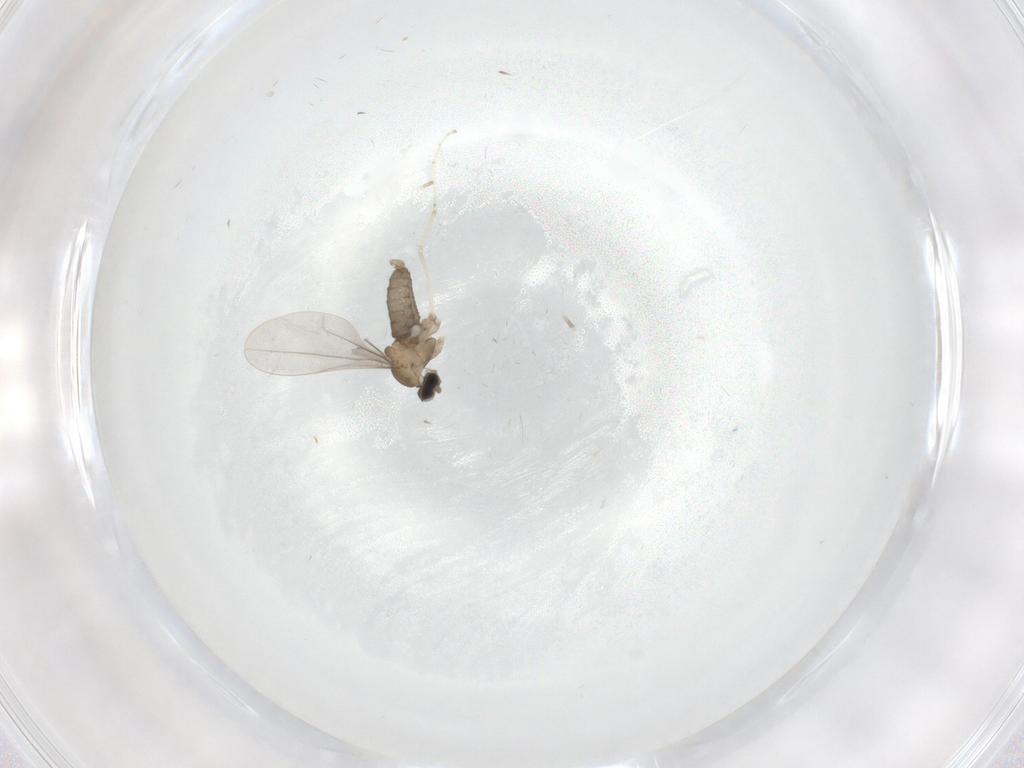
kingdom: Animalia
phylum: Arthropoda
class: Insecta
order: Diptera
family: Cecidomyiidae
